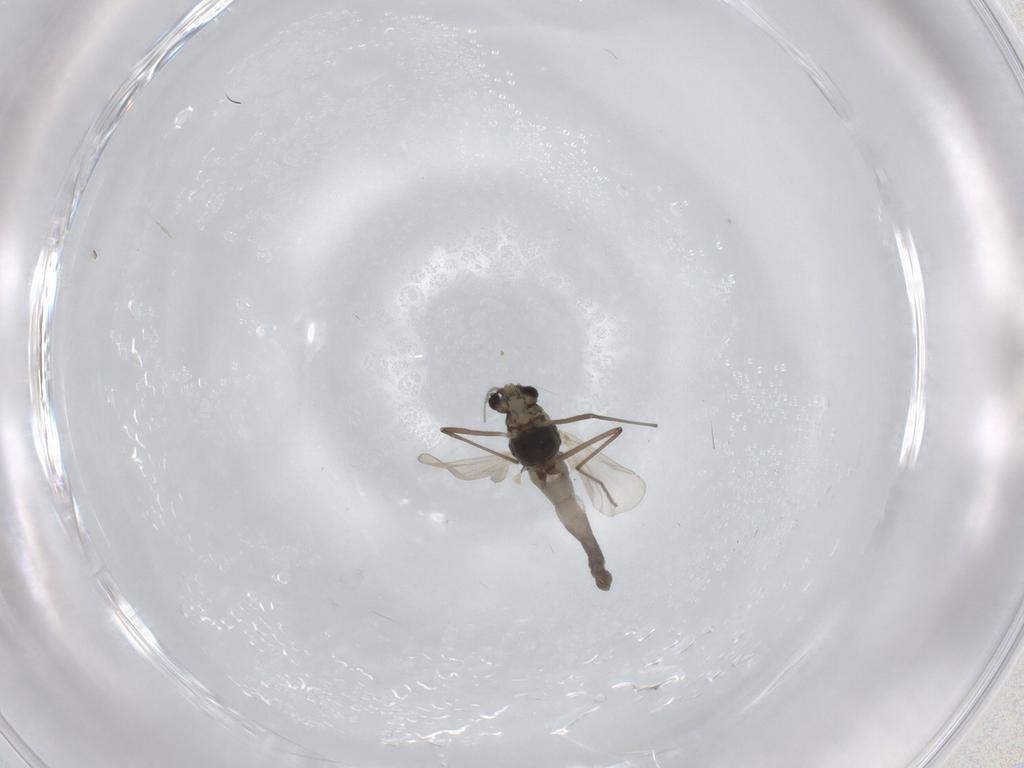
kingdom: Animalia
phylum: Arthropoda
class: Insecta
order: Diptera
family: Chironomidae
